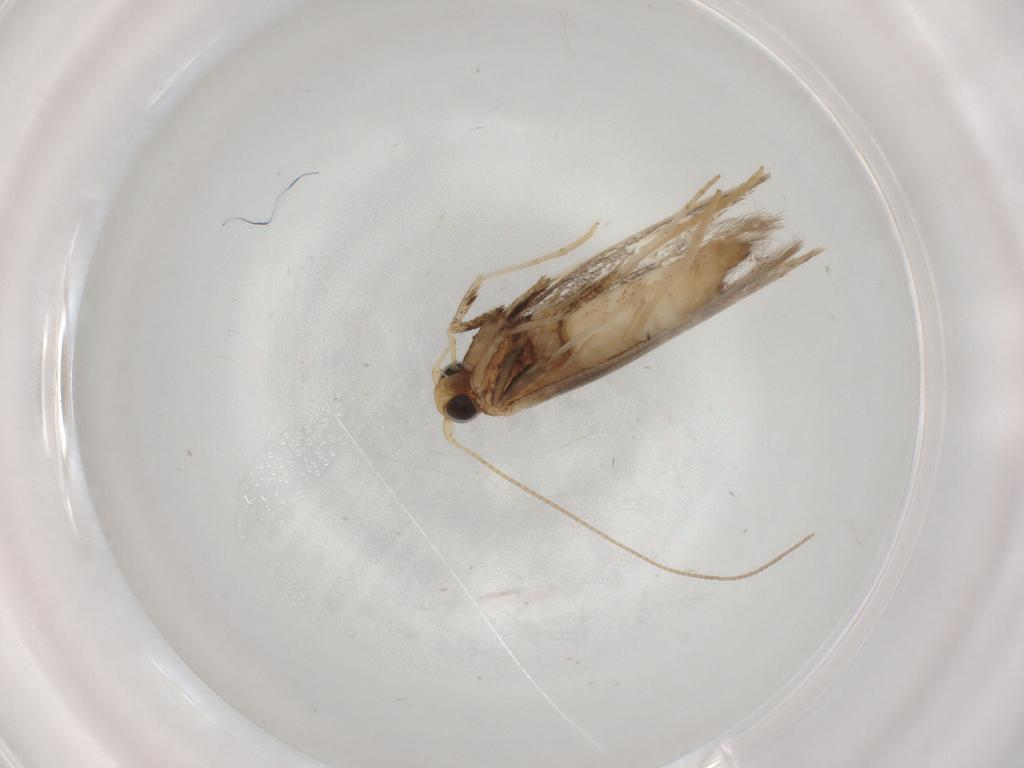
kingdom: Animalia
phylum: Arthropoda
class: Insecta
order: Lepidoptera
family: Gracillariidae
